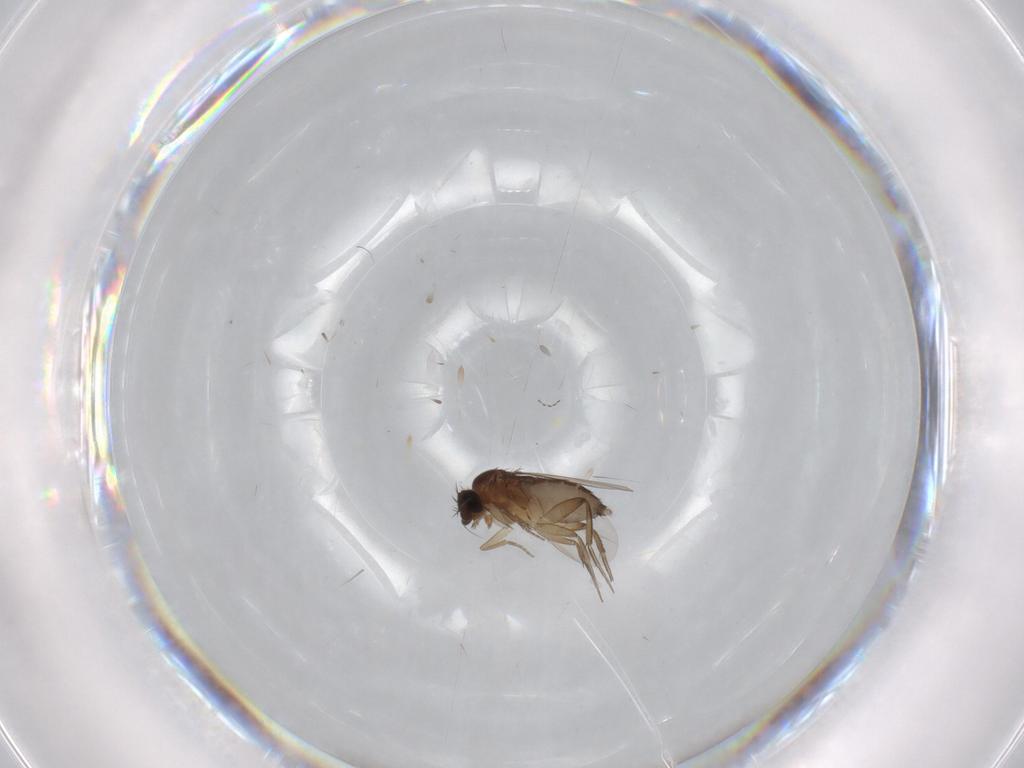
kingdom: Animalia
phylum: Arthropoda
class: Insecta
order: Diptera
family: Phoridae
